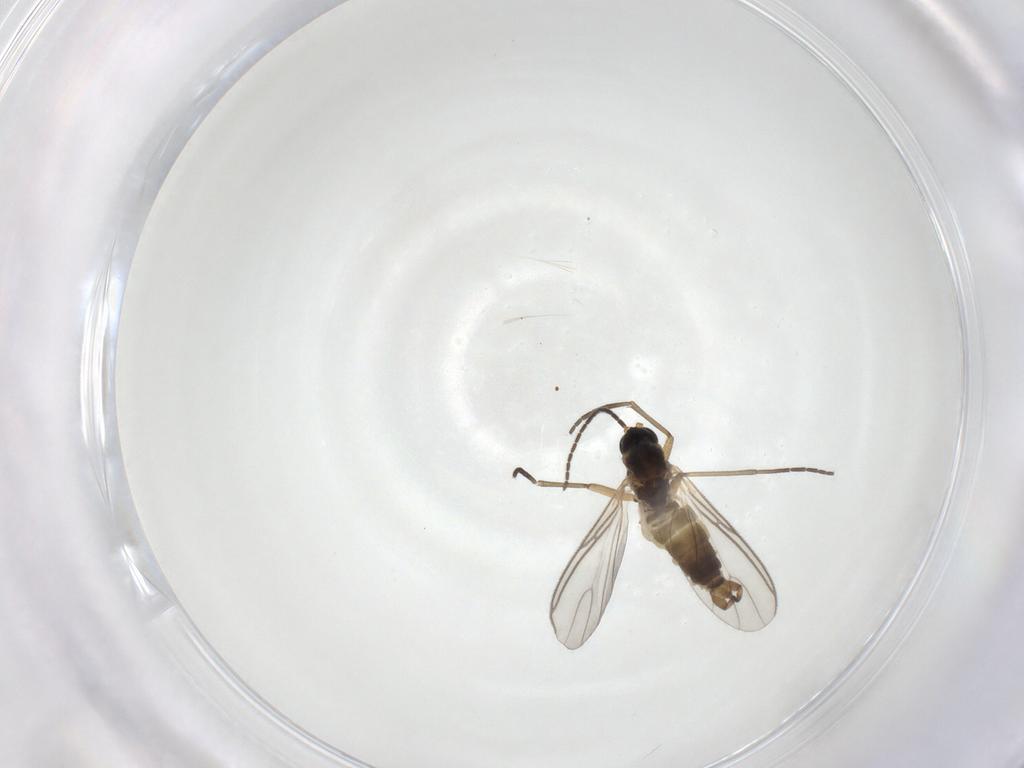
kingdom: Animalia
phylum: Arthropoda
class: Insecta
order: Diptera
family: Chironomidae
